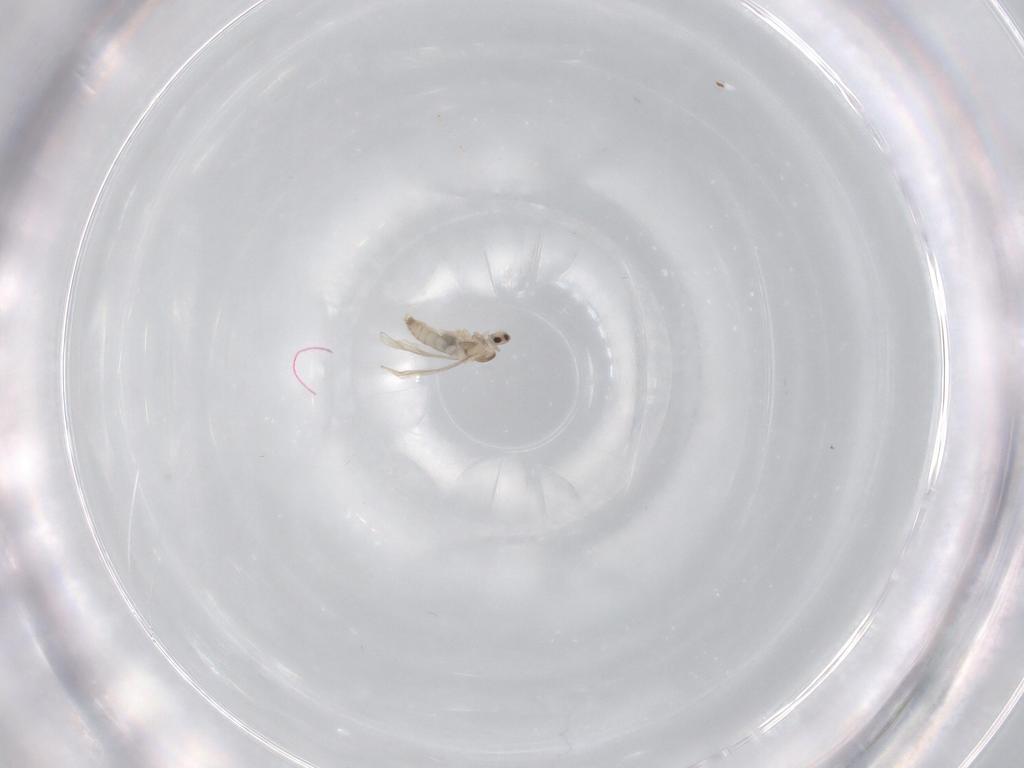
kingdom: Animalia
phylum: Arthropoda
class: Insecta
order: Diptera
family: Cecidomyiidae
